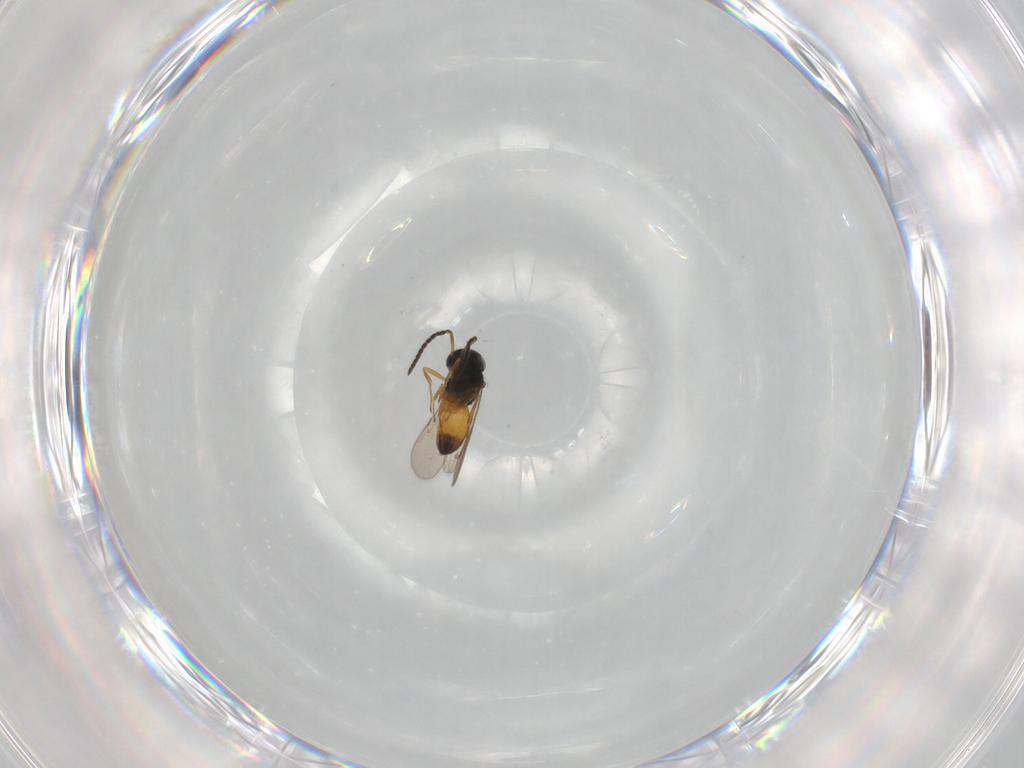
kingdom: Animalia
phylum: Arthropoda
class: Insecta
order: Hymenoptera
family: Scelionidae
